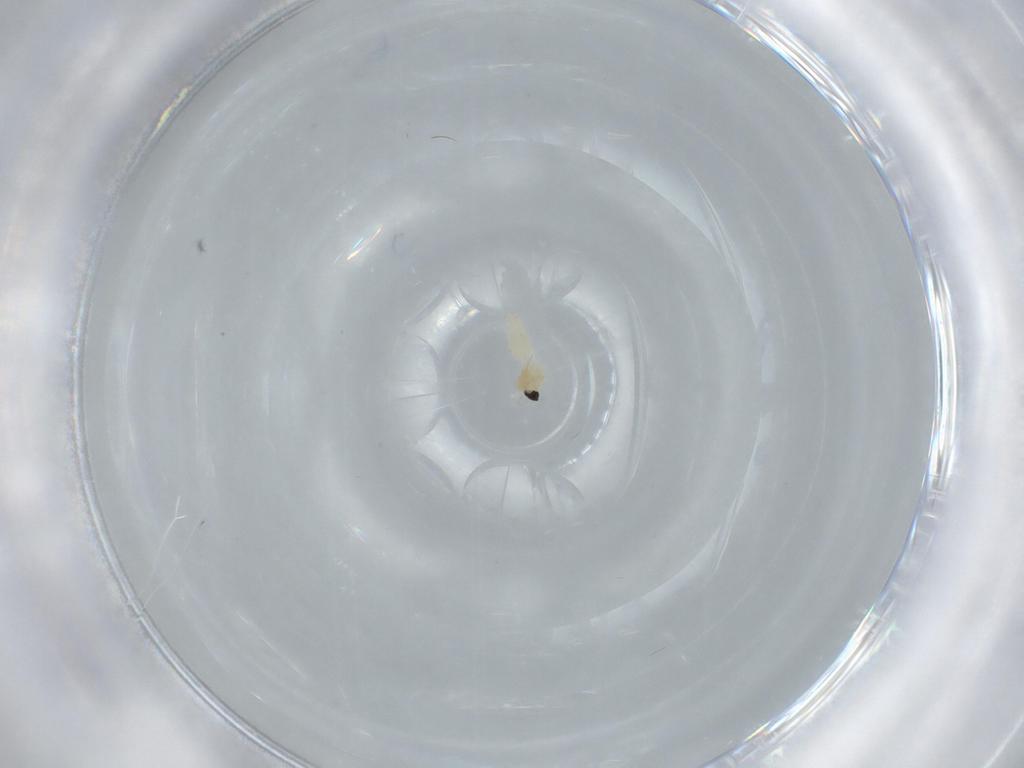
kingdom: Animalia
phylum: Arthropoda
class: Insecta
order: Diptera
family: Cecidomyiidae
